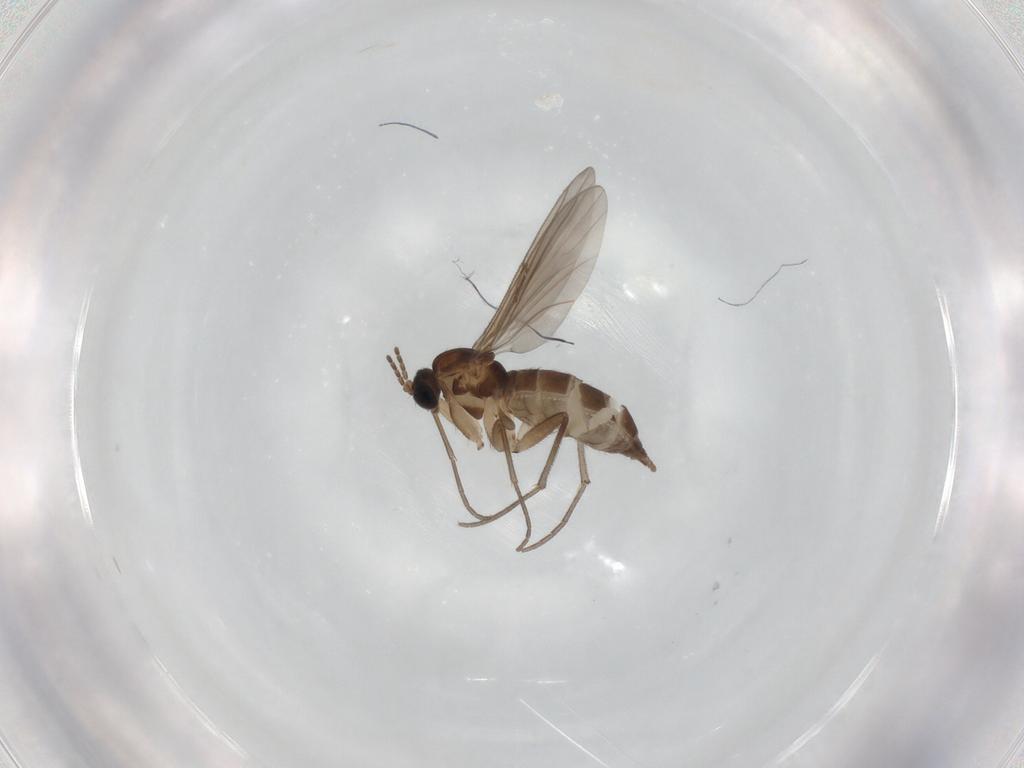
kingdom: Animalia
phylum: Arthropoda
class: Insecta
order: Diptera
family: Sciaridae
